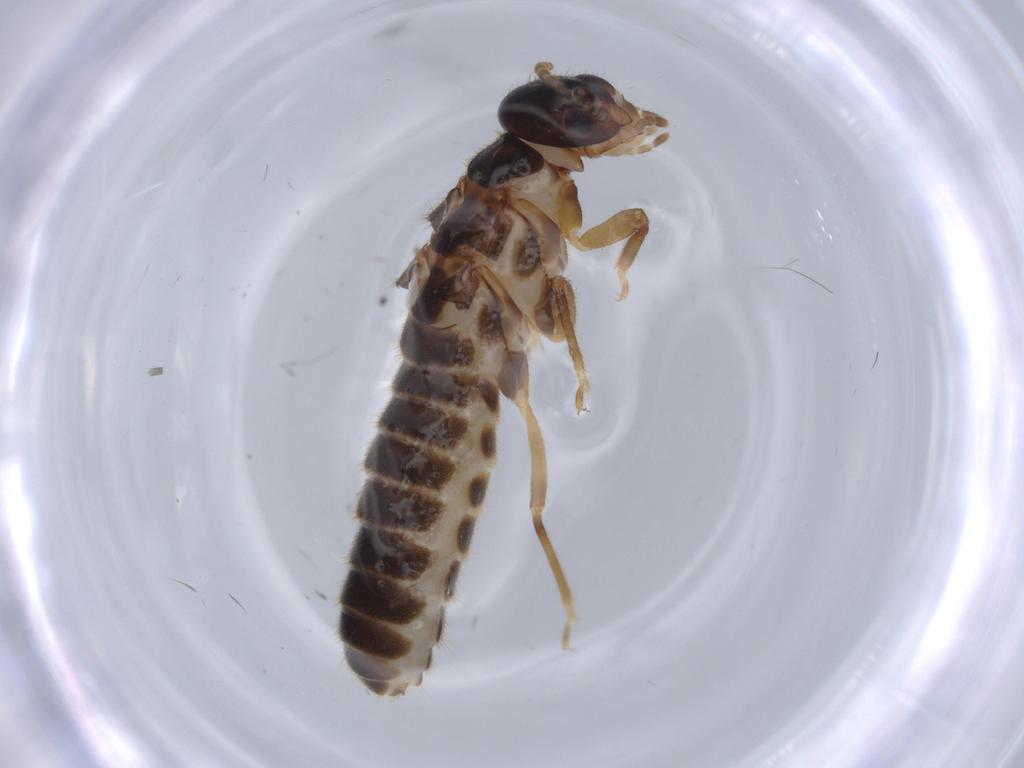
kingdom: Animalia
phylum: Arthropoda
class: Insecta
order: Blattodea
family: Termitidae
